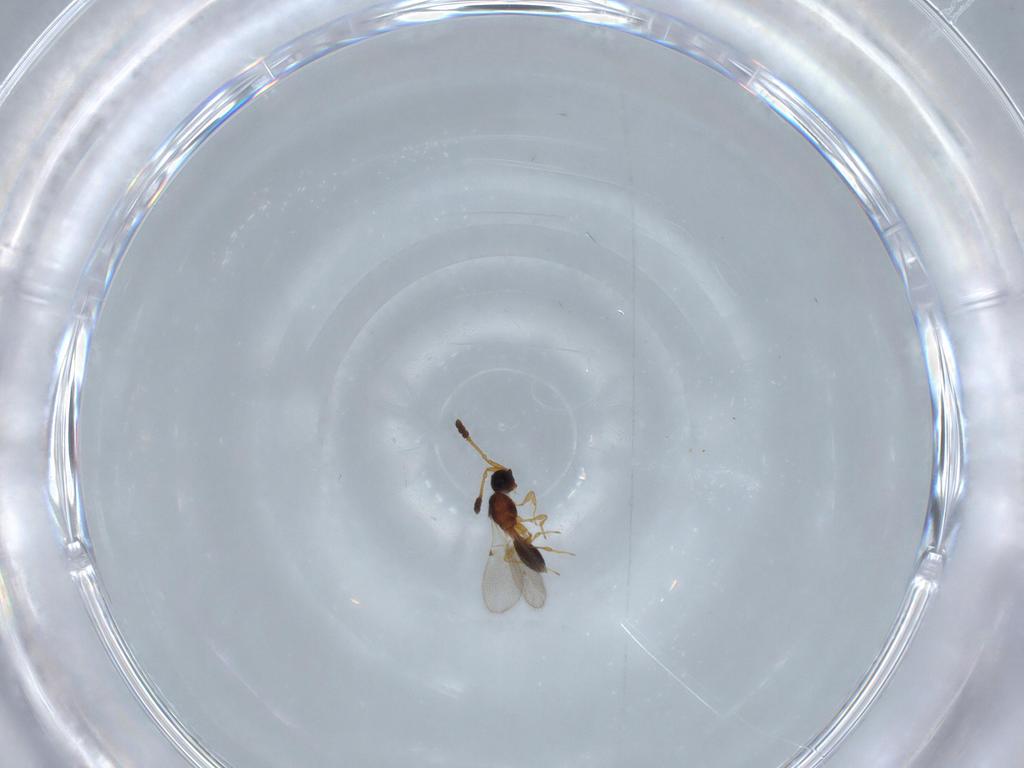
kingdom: Animalia
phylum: Arthropoda
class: Insecta
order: Hymenoptera
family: Diapriidae
